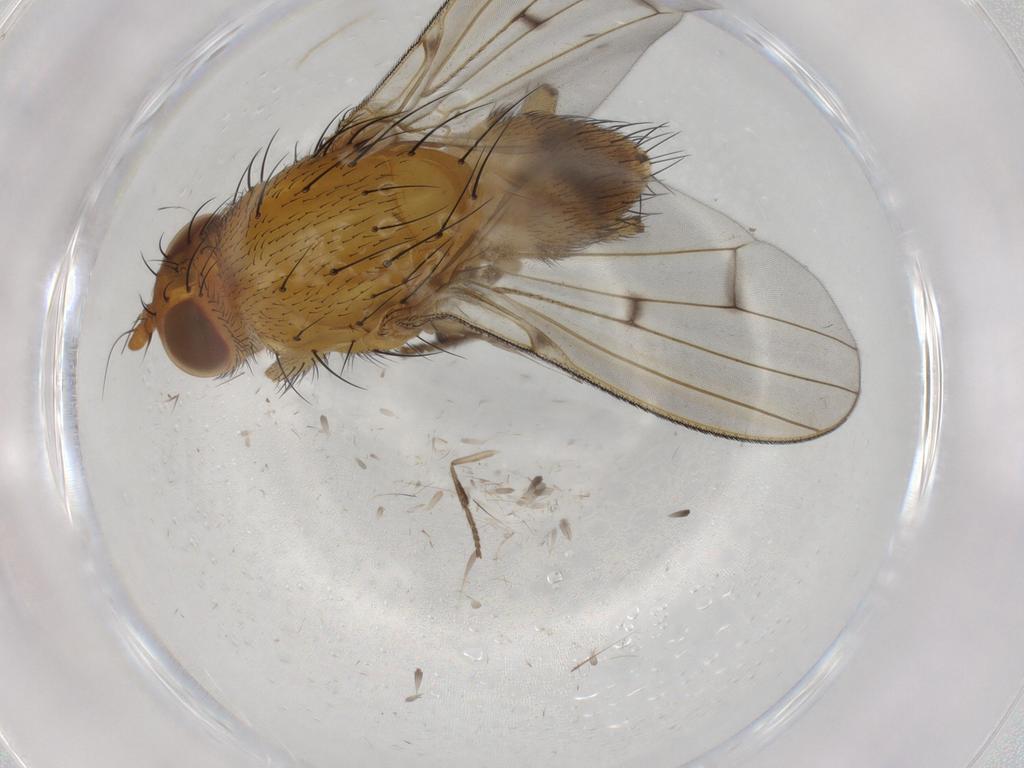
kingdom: Animalia
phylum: Arthropoda
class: Insecta
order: Diptera
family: Psychodidae
